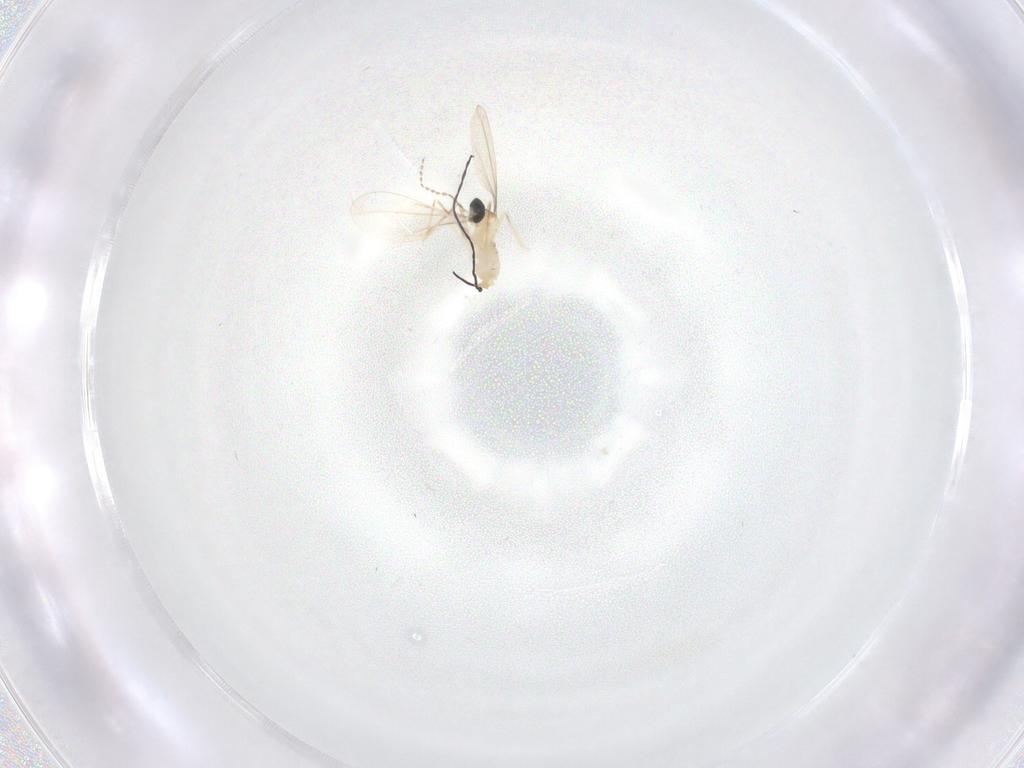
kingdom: Animalia
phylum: Arthropoda
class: Insecta
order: Diptera
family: Cecidomyiidae
